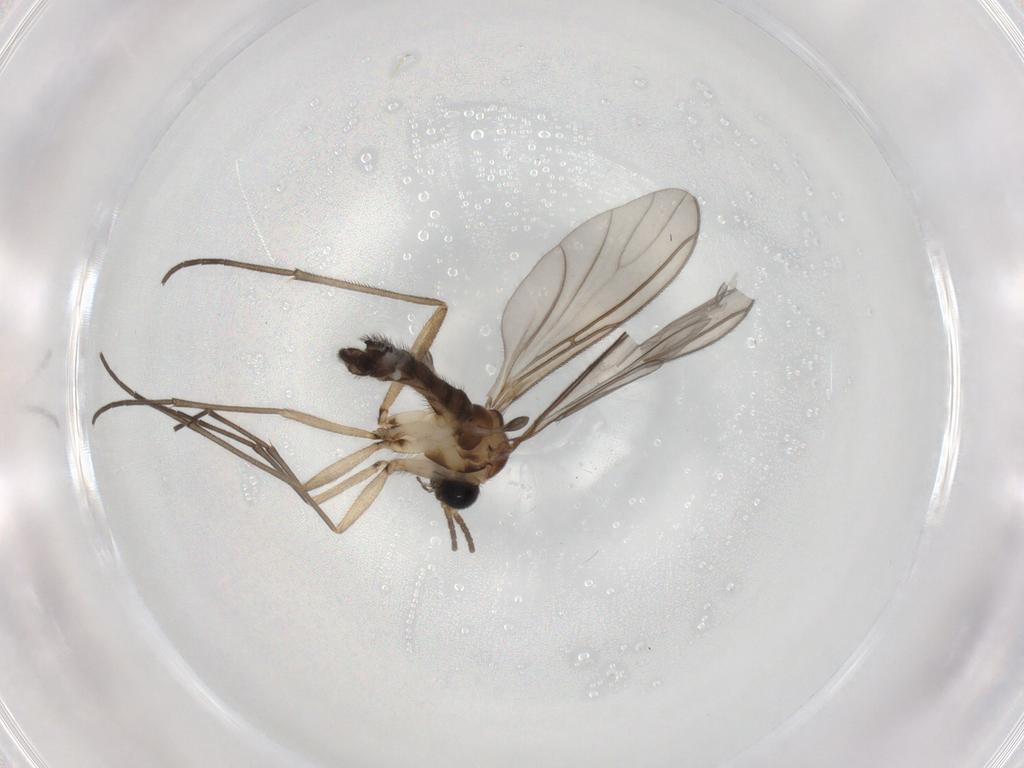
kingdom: Animalia
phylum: Arthropoda
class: Insecta
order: Diptera
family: Sciaridae
